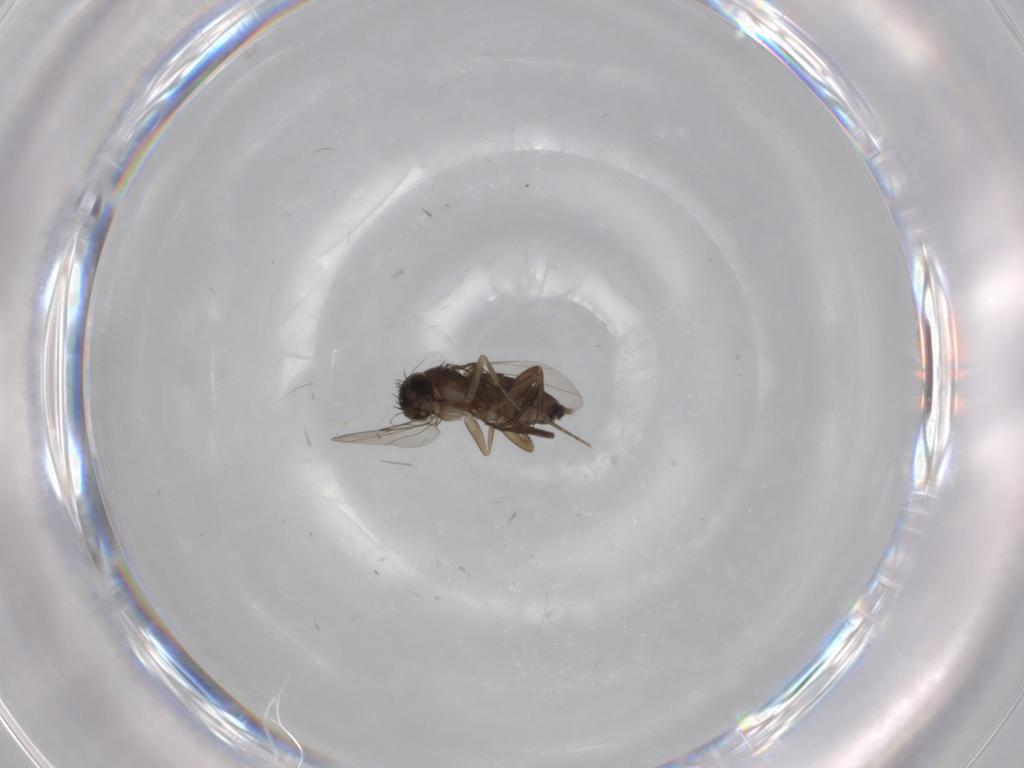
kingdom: Animalia
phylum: Arthropoda
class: Insecta
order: Diptera
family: Phoridae
